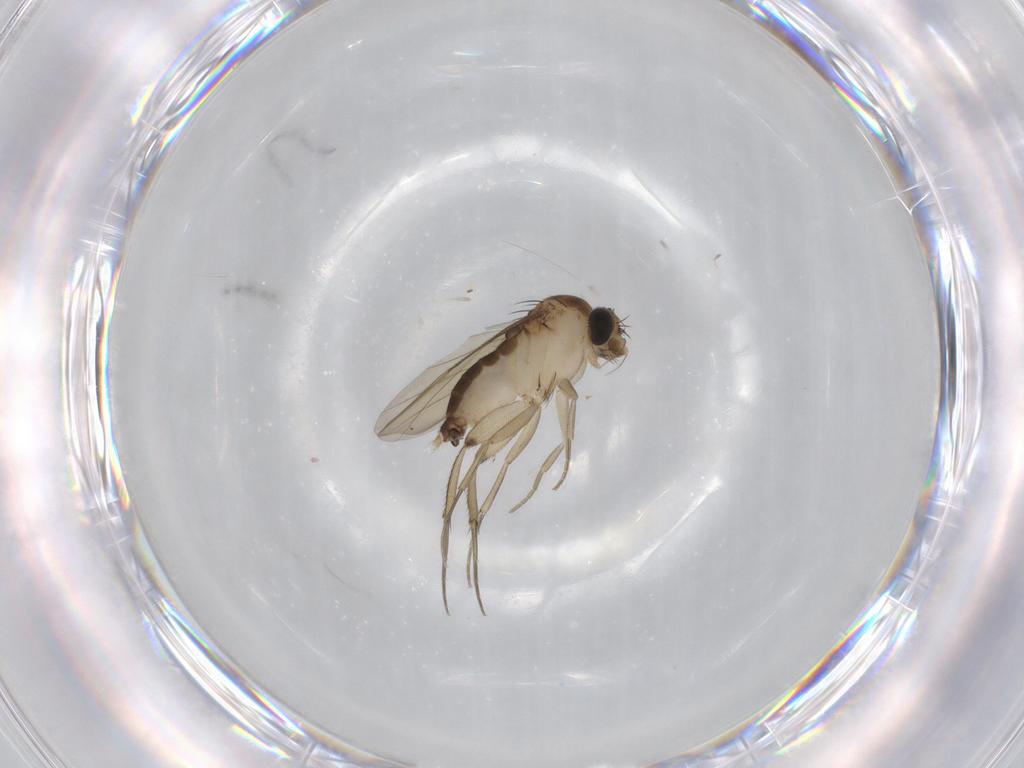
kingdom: Animalia
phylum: Arthropoda
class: Insecta
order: Diptera
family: Phoridae
